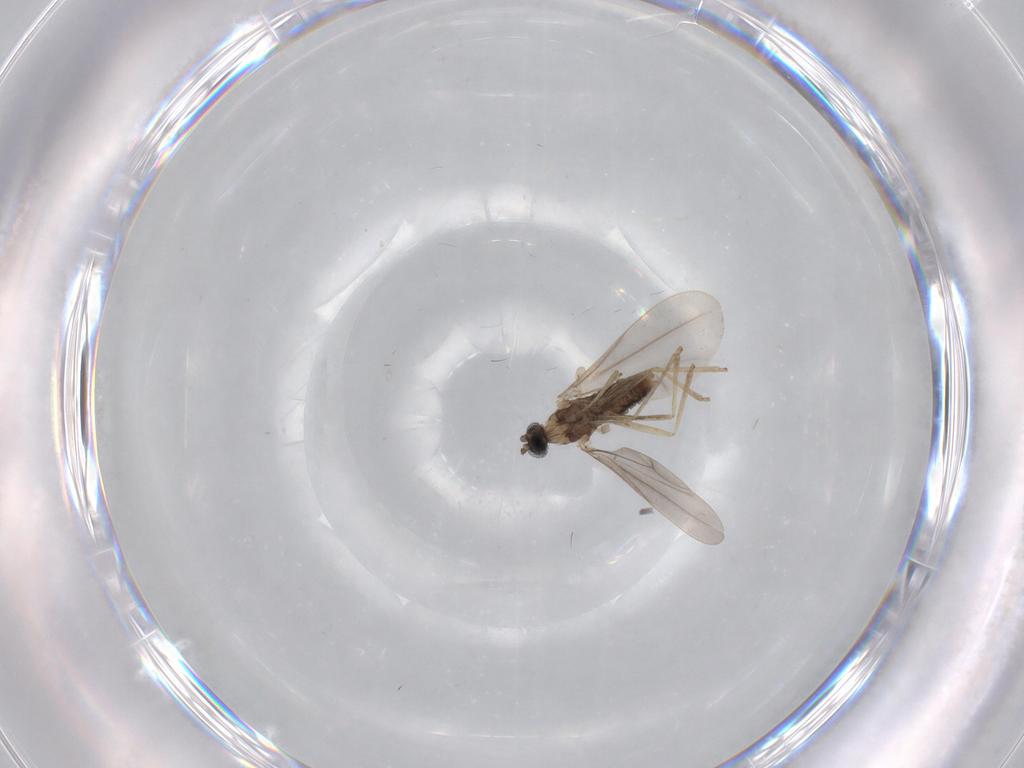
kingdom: Animalia
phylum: Arthropoda
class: Insecta
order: Diptera
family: Cecidomyiidae
